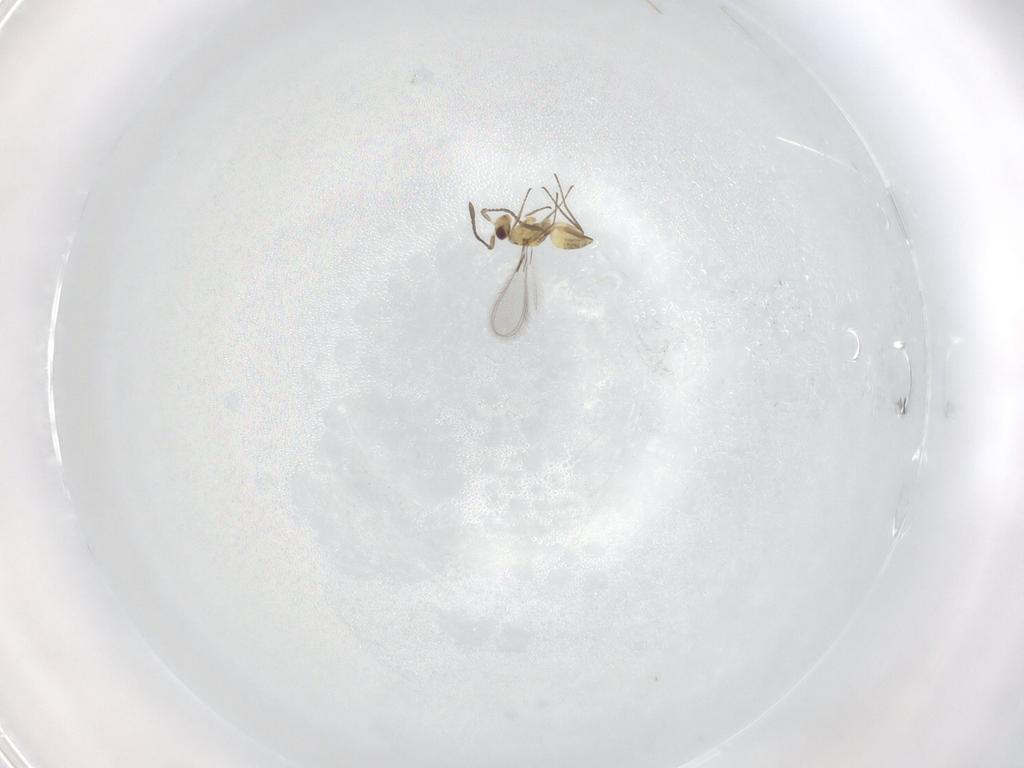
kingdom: Animalia
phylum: Arthropoda
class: Insecta
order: Hymenoptera
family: Mymaridae
